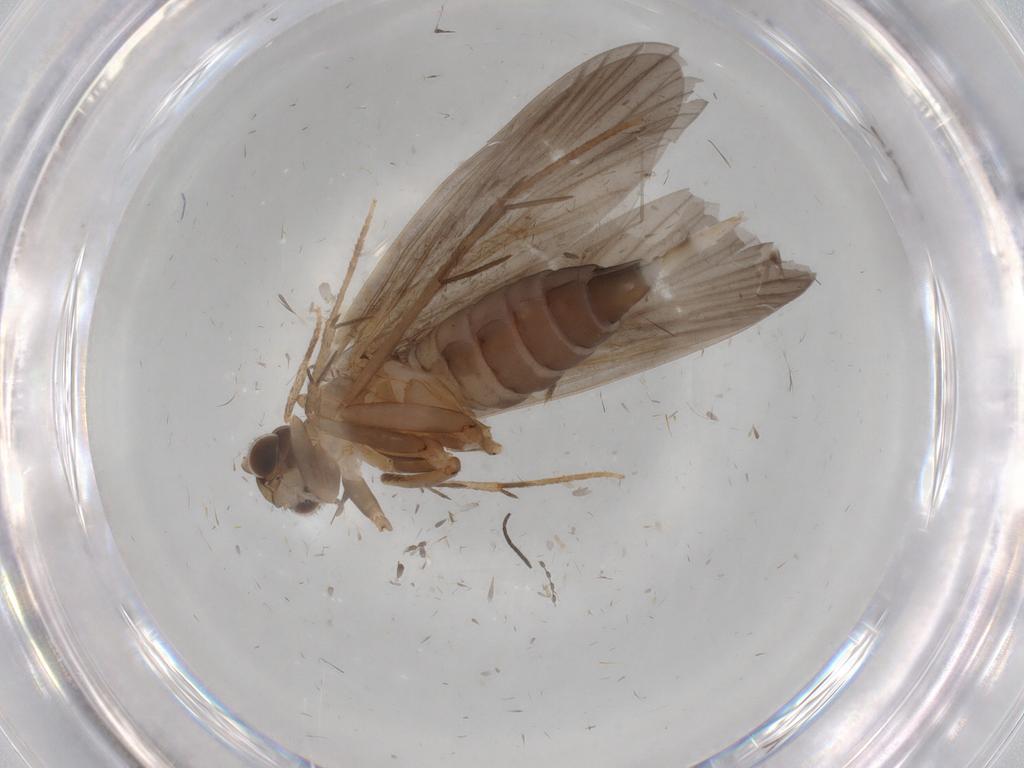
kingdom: Animalia
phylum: Arthropoda
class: Insecta
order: Trichoptera
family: Philopotamidae
